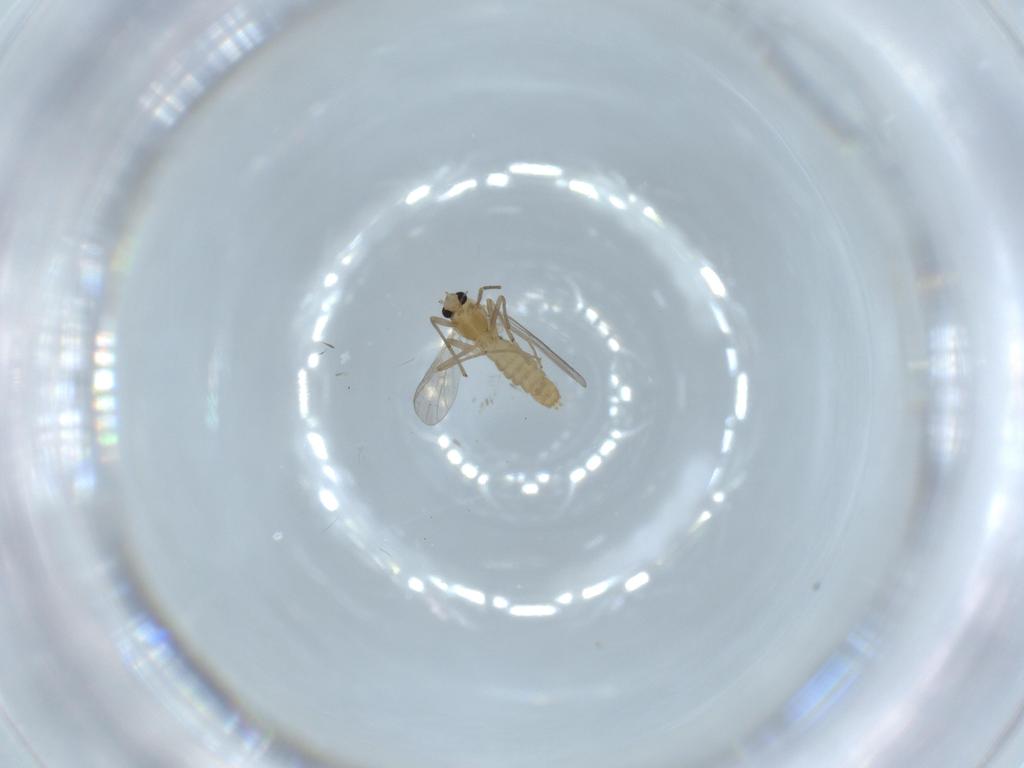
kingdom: Animalia
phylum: Arthropoda
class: Insecta
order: Diptera
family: Chironomidae
